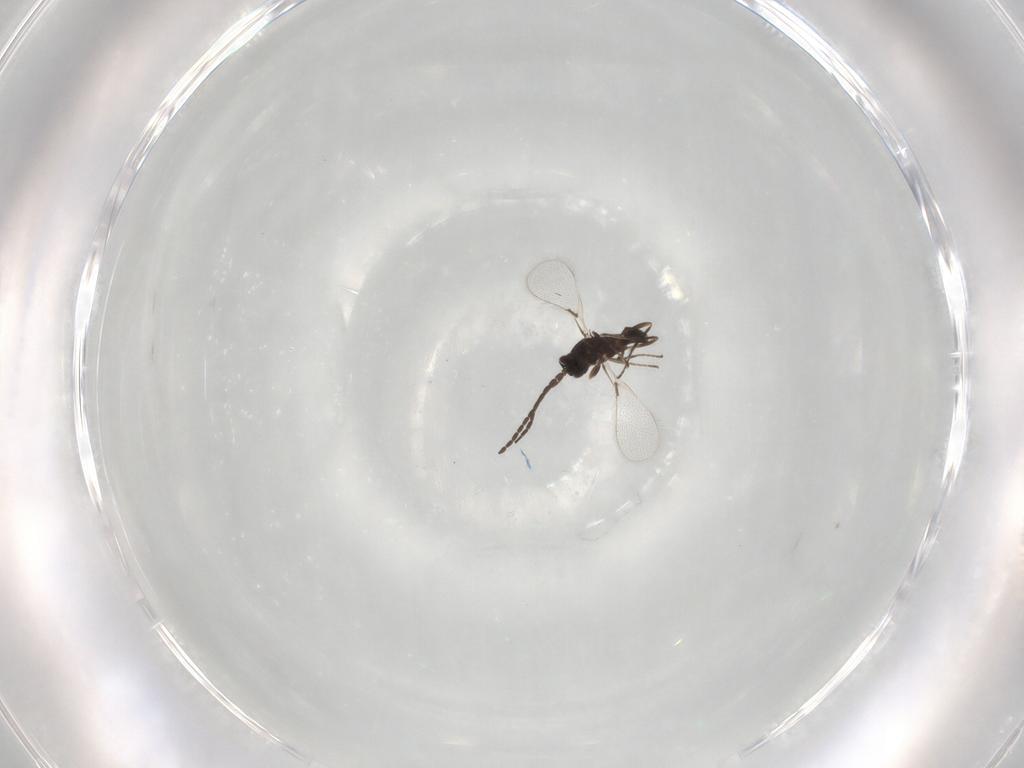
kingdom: Animalia
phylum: Arthropoda
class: Insecta
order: Hymenoptera
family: Mymaridae
